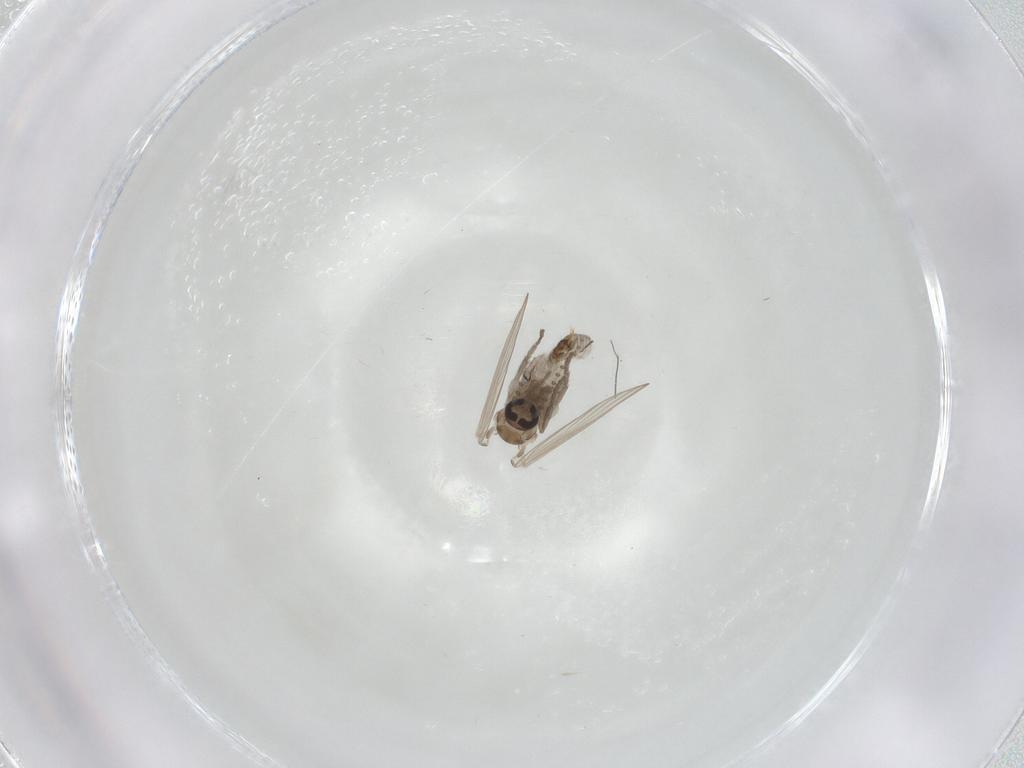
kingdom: Animalia
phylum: Arthropoda
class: Insecta
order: Diptera
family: Psychodidae
